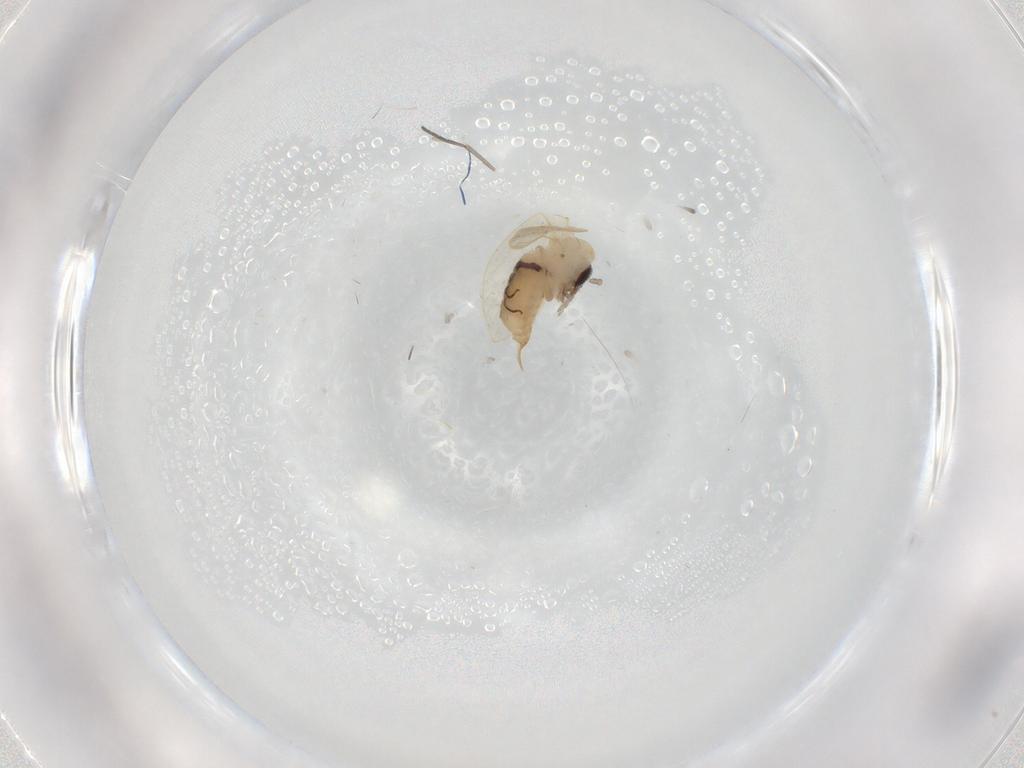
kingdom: Animalia
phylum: Arthropoda
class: Insecta
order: Diptera
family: Psychodidae
